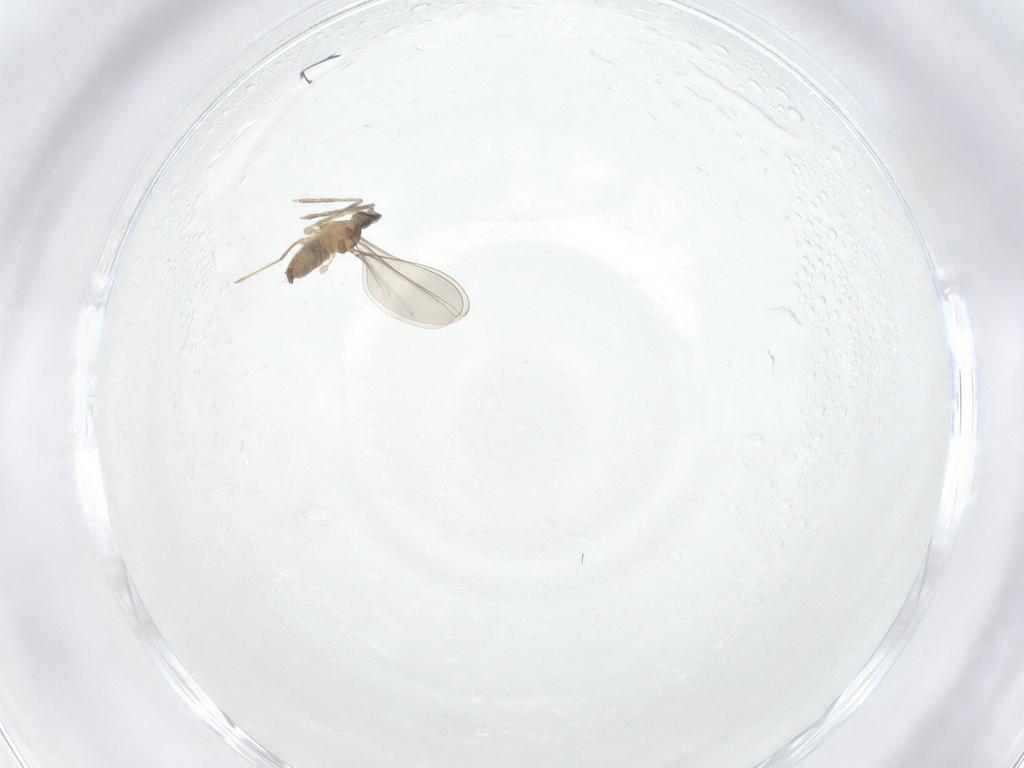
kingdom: Animalia
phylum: Arthropoda
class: Insecta
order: Diptera
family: Cecidomyiidae
